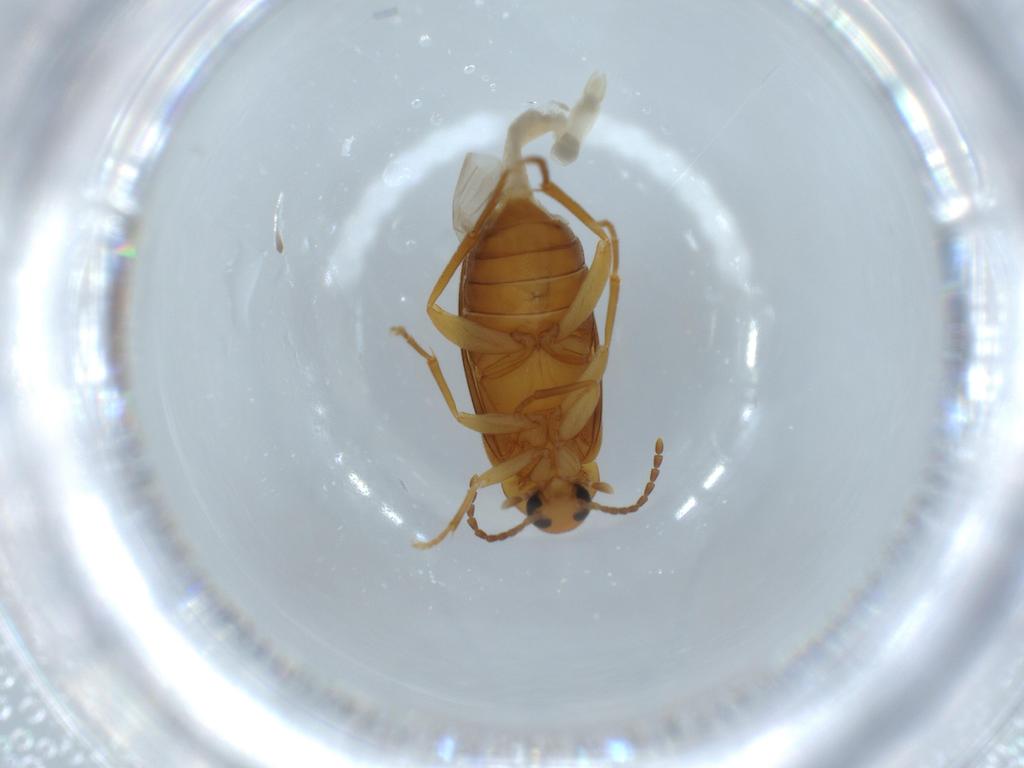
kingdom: Animalia
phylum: Arthropoda
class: Insecta
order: Coleoptera
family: Scraptiidae
